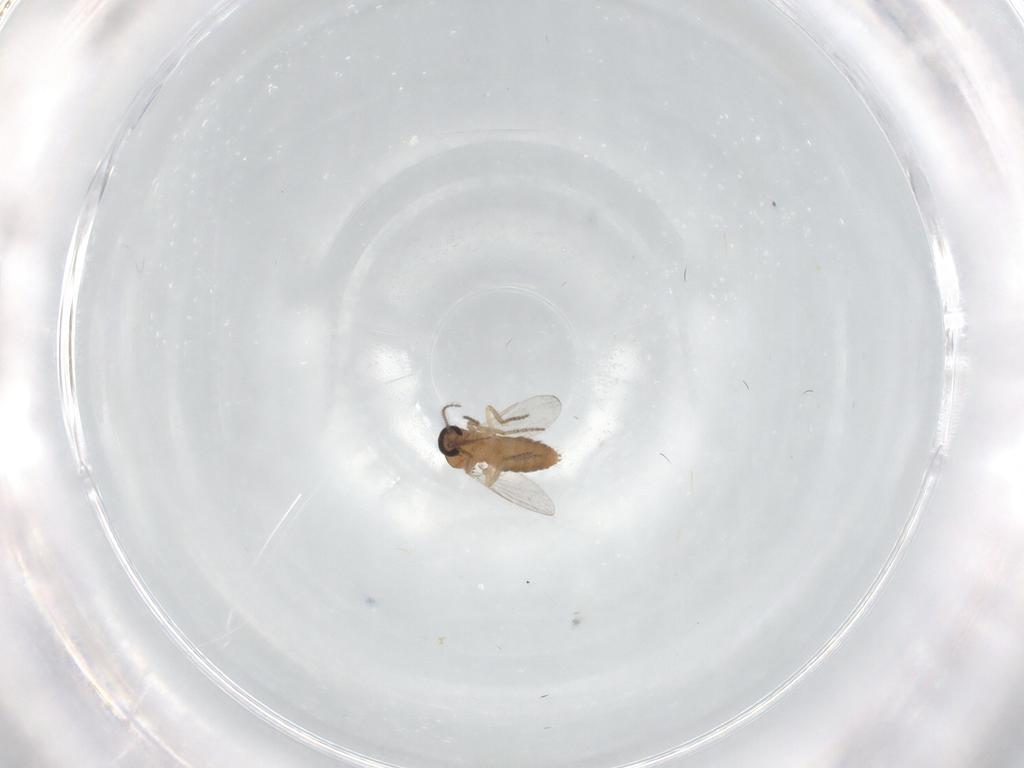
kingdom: Animalia
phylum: Arthropoda
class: Insecta
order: Diptera
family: Ceratopogonidae
